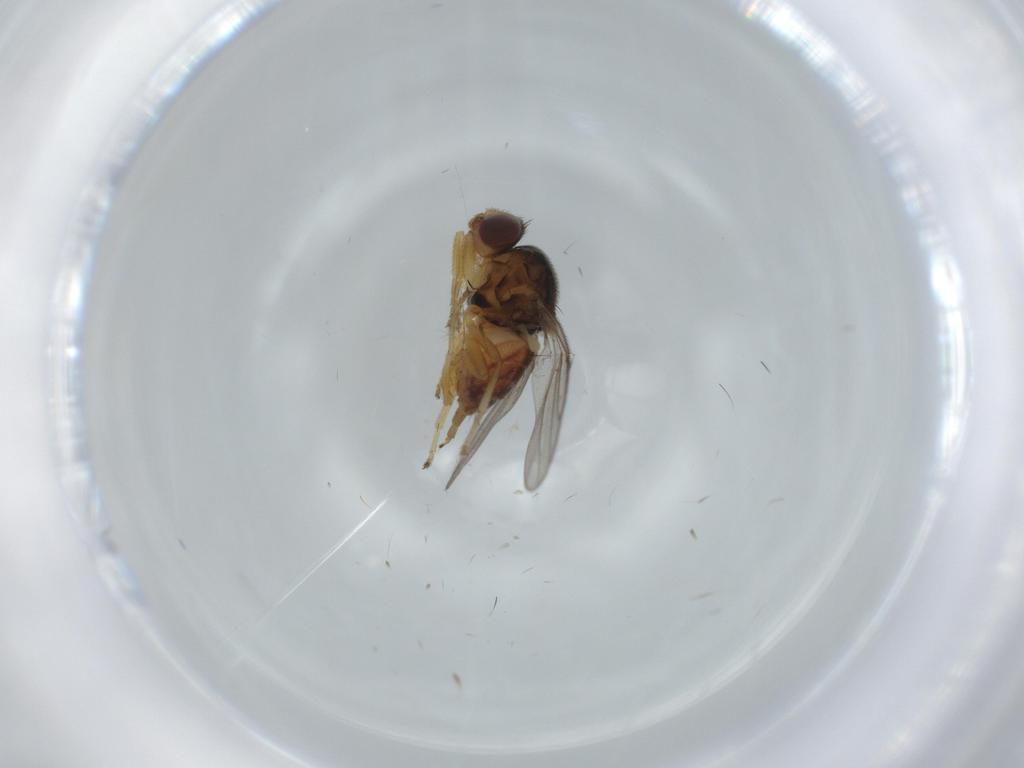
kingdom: Animalia
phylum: Arthropoda
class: Insecta
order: Diptera
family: Chloropidae
